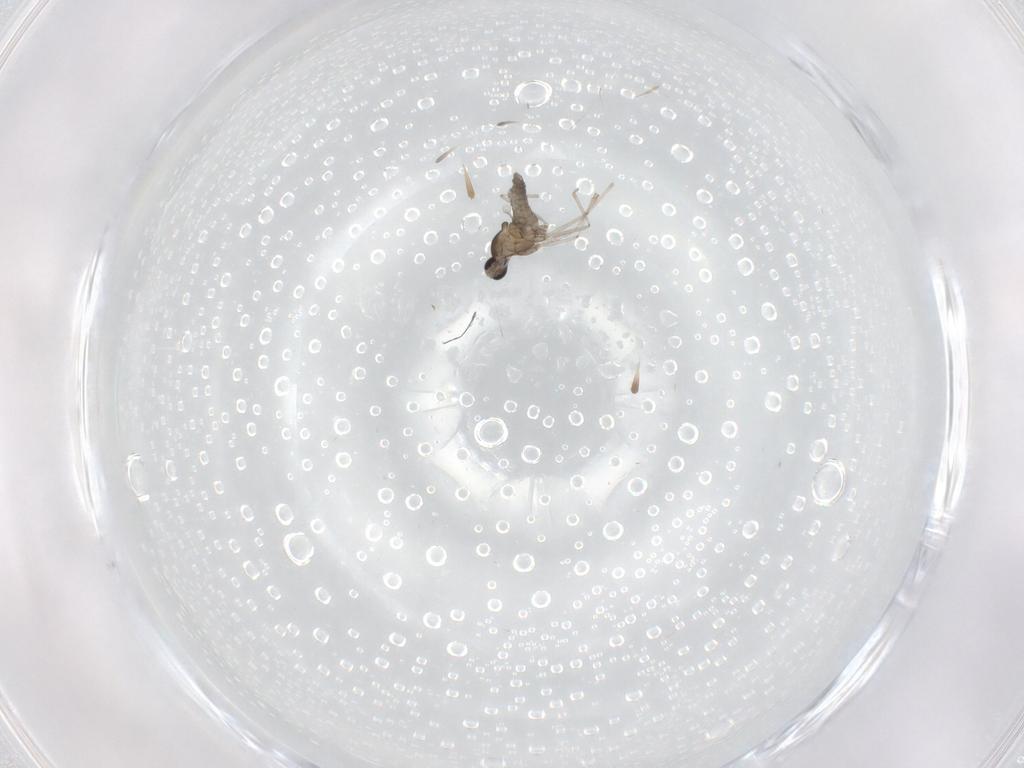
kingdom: Animalia
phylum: Arthropoda
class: Insecta
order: Diptera
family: Cecidomyiidae
